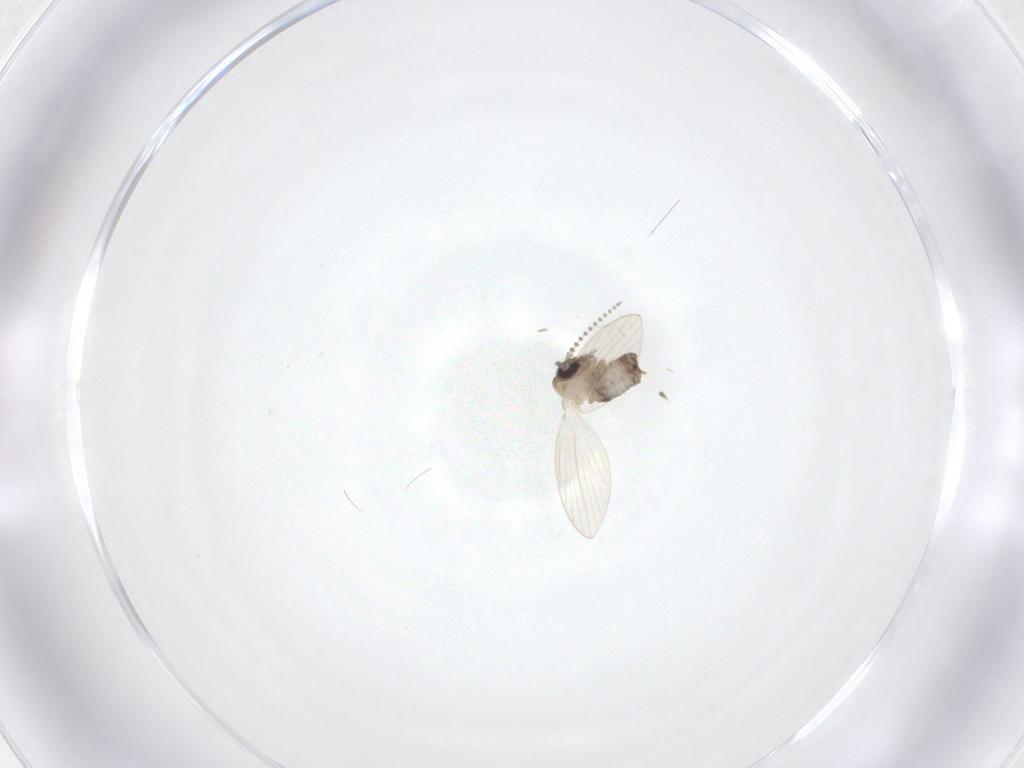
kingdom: Animalia
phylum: Arthropoda
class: Insecta
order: Diptera
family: Psychodidae
